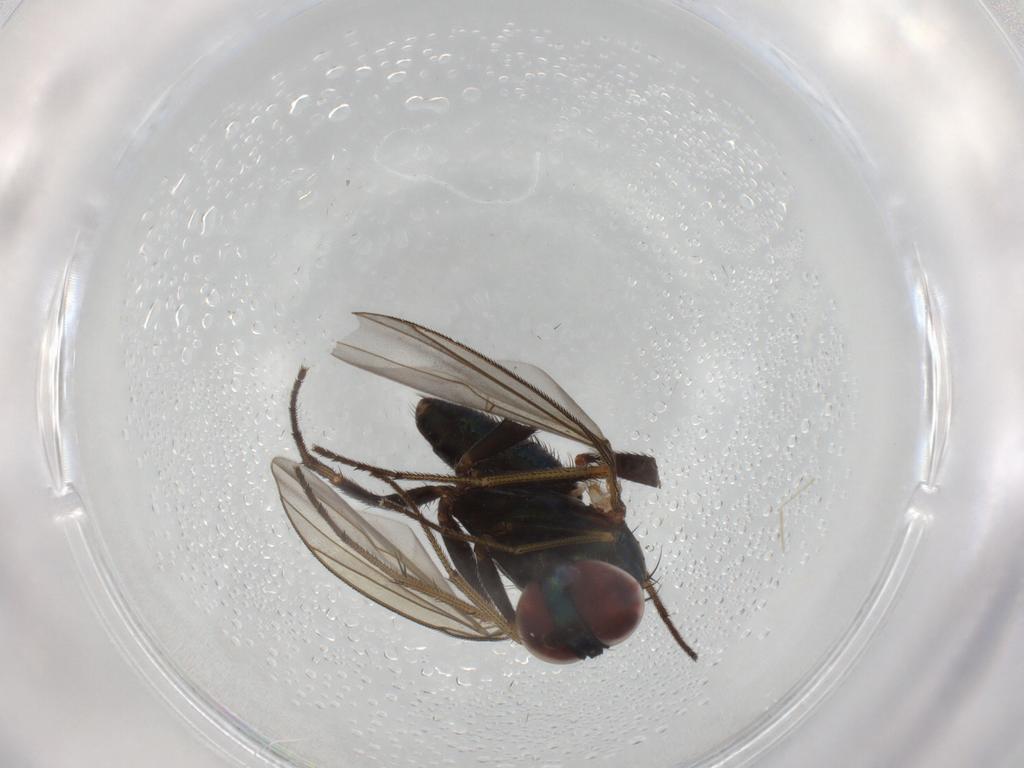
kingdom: Animalia
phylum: Arthropoda
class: Insecta
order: Diptera
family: Dolichopodidae
